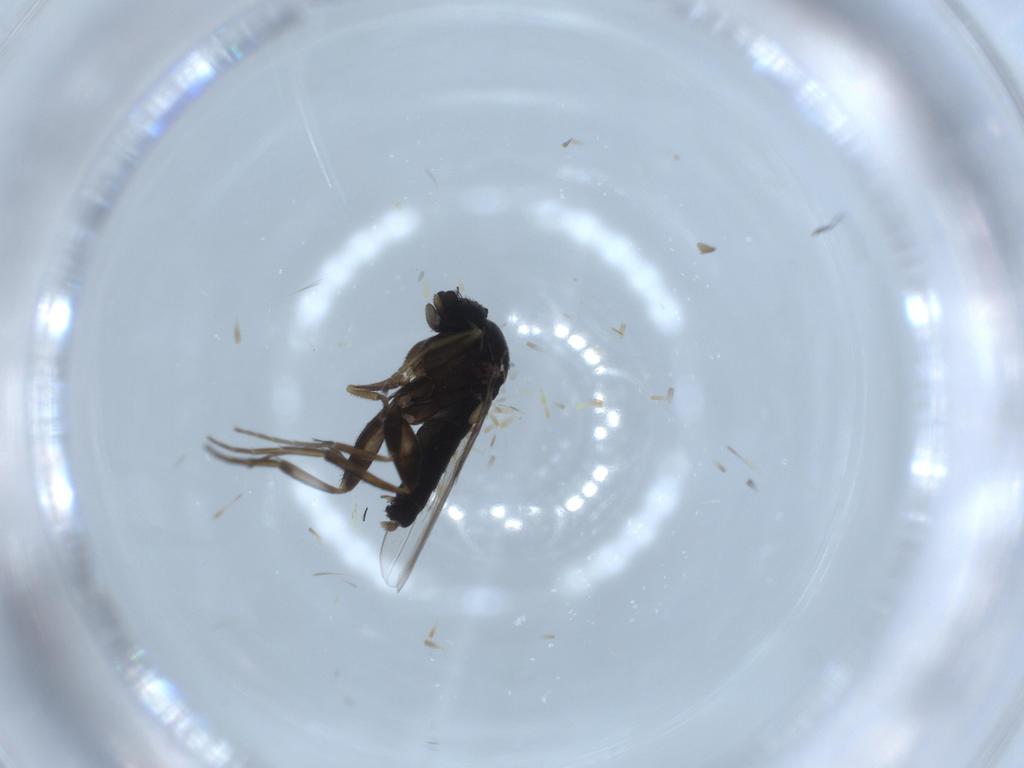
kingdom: Animalia
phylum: Arthropoda
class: Insecta
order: Diptera
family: Phoridae
